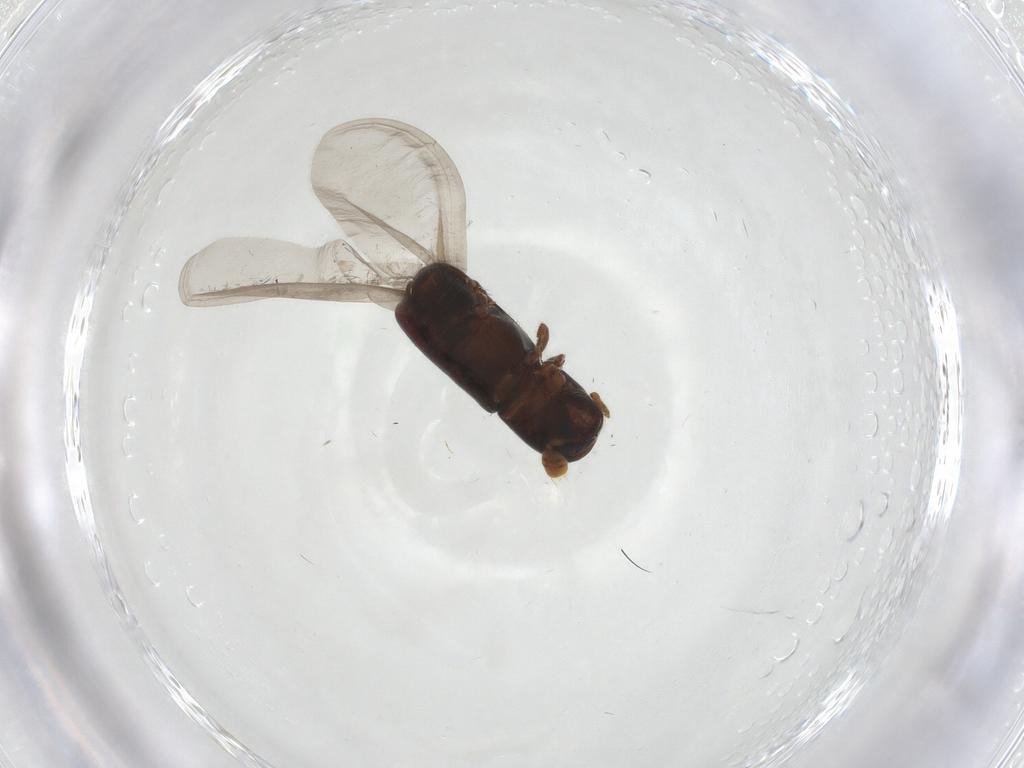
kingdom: Animalia
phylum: Arthropoda
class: Insecta
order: Coleoptera
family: Curculionidae
